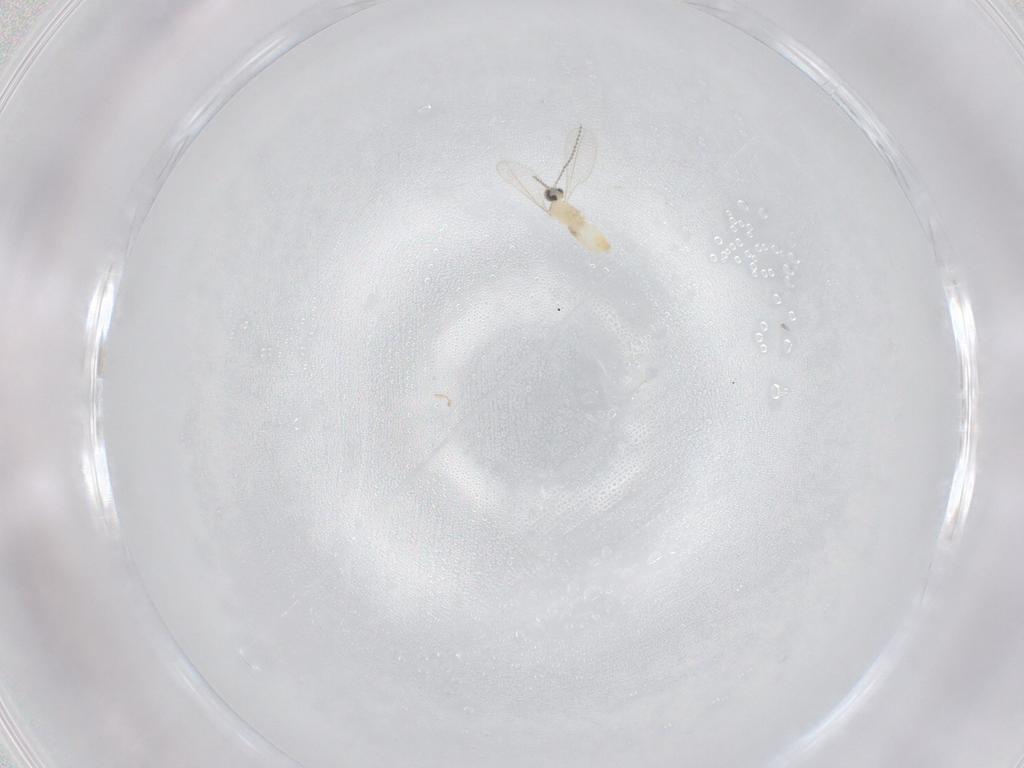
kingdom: Animalia
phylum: Arthropoda
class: Insecta
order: Diptera
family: Cecidomyiidae
